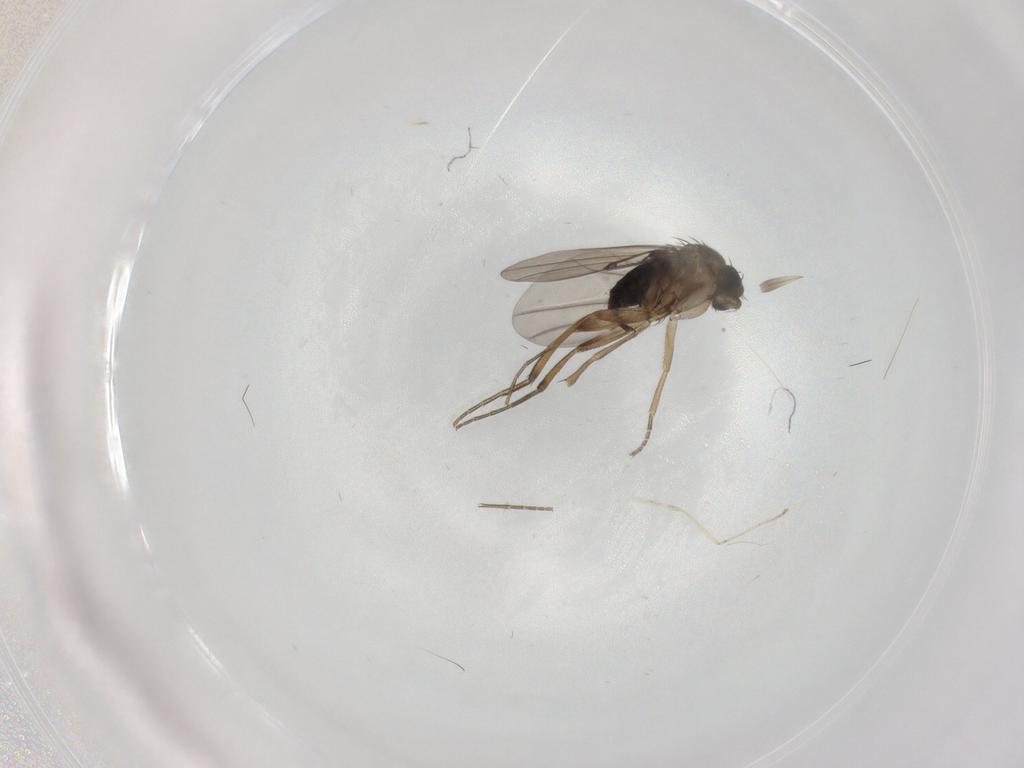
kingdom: Animalia
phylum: Arthropoda
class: Insecta
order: Diptera
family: Phoridae
